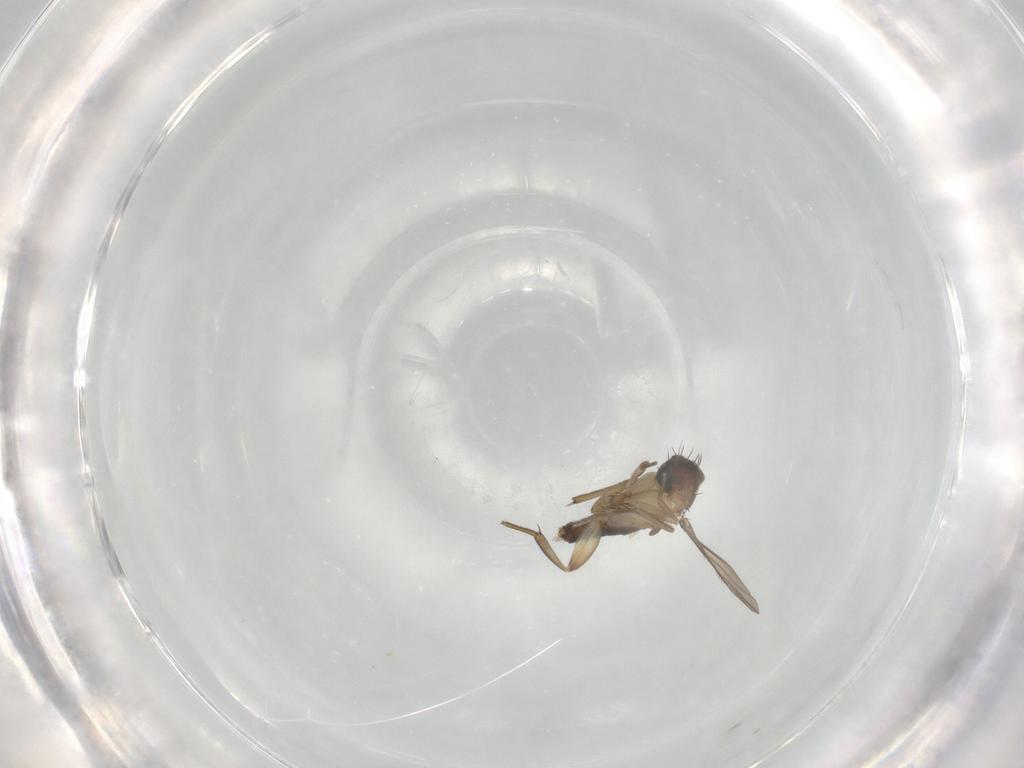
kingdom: Animalia
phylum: Arthropoda
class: Insecta
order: Diptera
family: Phoridae
